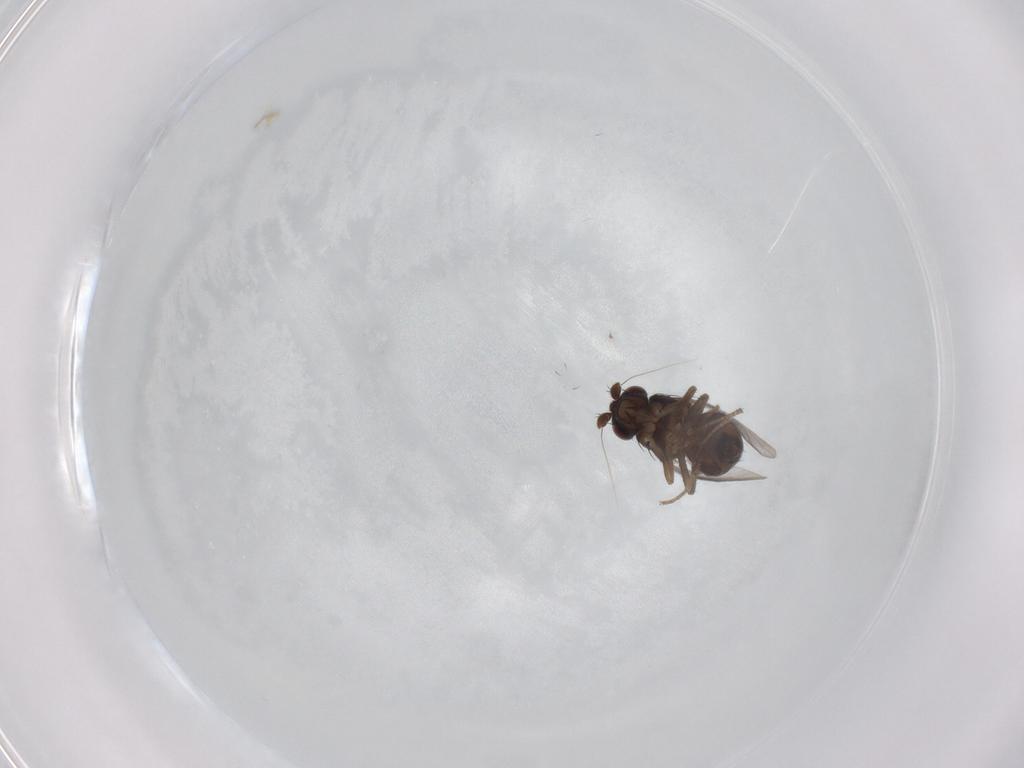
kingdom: Animalia
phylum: Arthropoda
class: Insecta
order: Diptera
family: Sphaeroceridae
